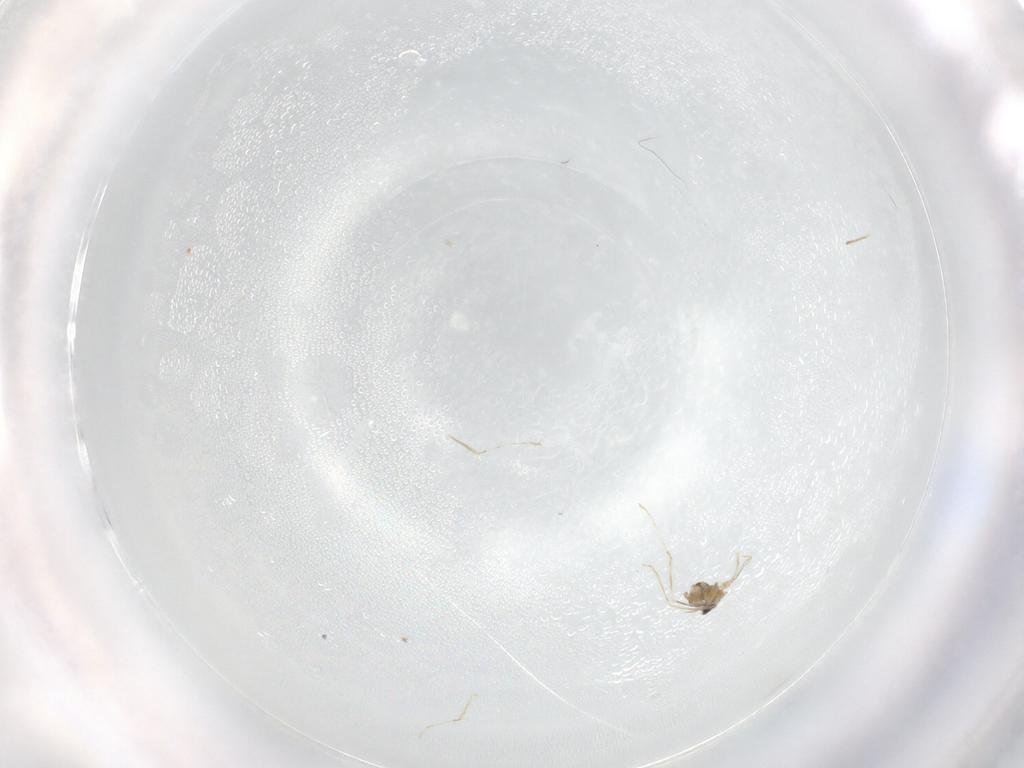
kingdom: Animalia
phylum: Arthropoda
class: Insecta
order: Diptera
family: Cecidomyiidae
